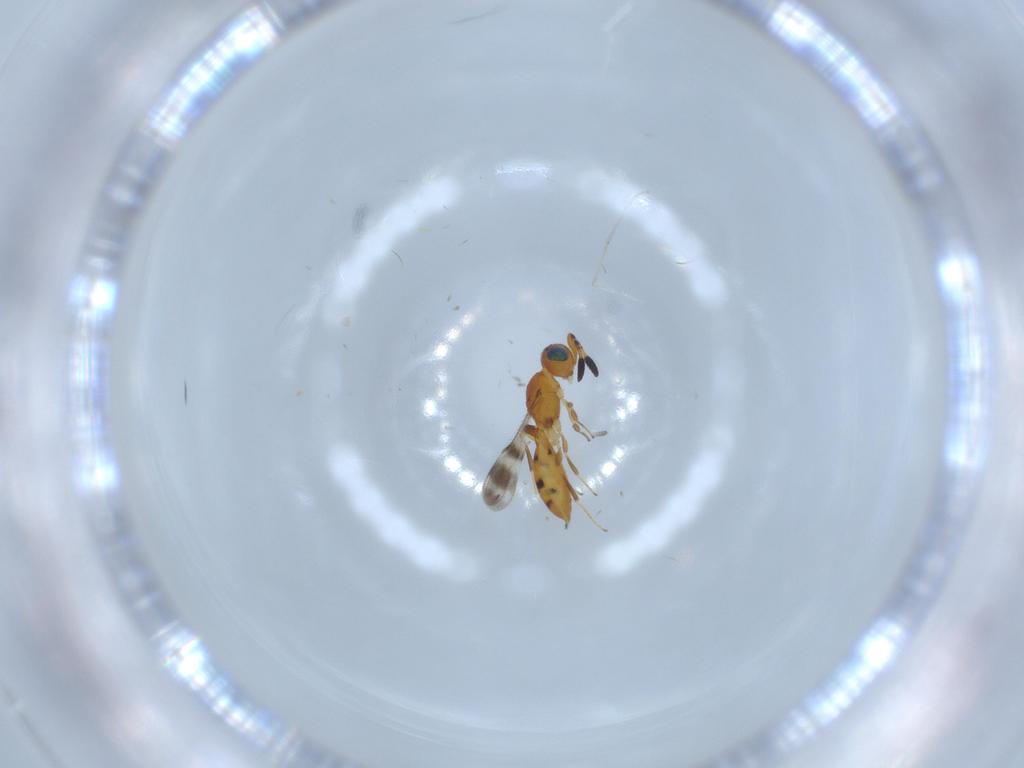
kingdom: Animalia
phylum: Arthropoda
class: Insecta
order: Hymenoptera
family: Scelionidae
